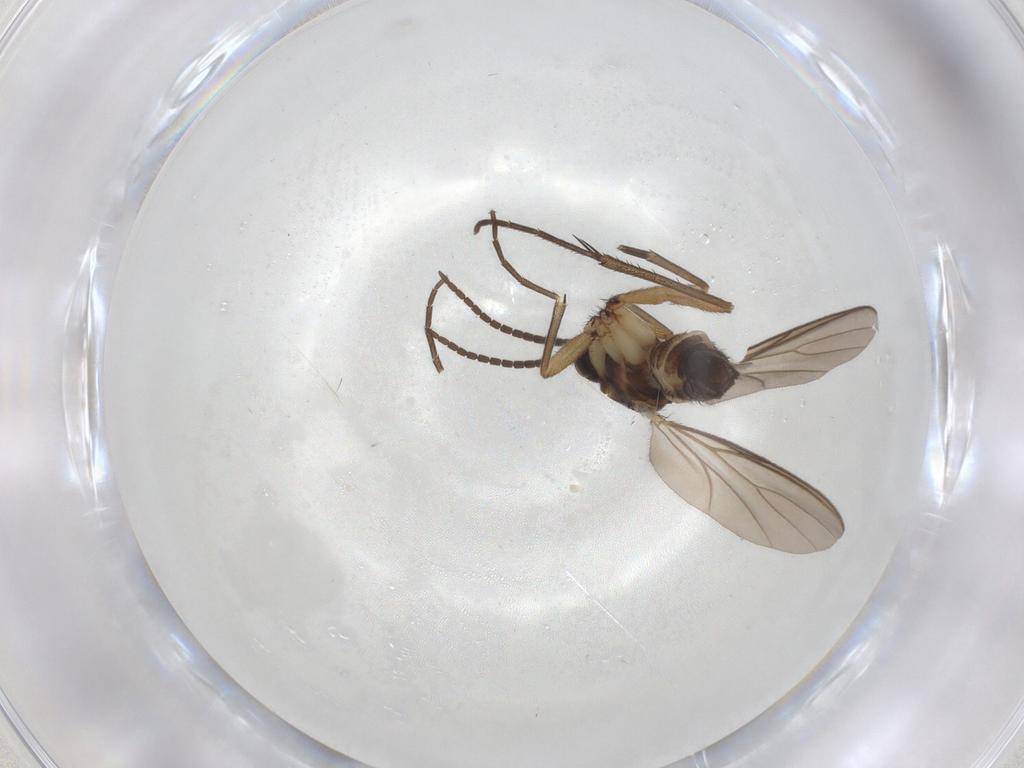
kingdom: Animalia
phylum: Arthropoda
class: Insecta
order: Diptera
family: Mycetophilidae
